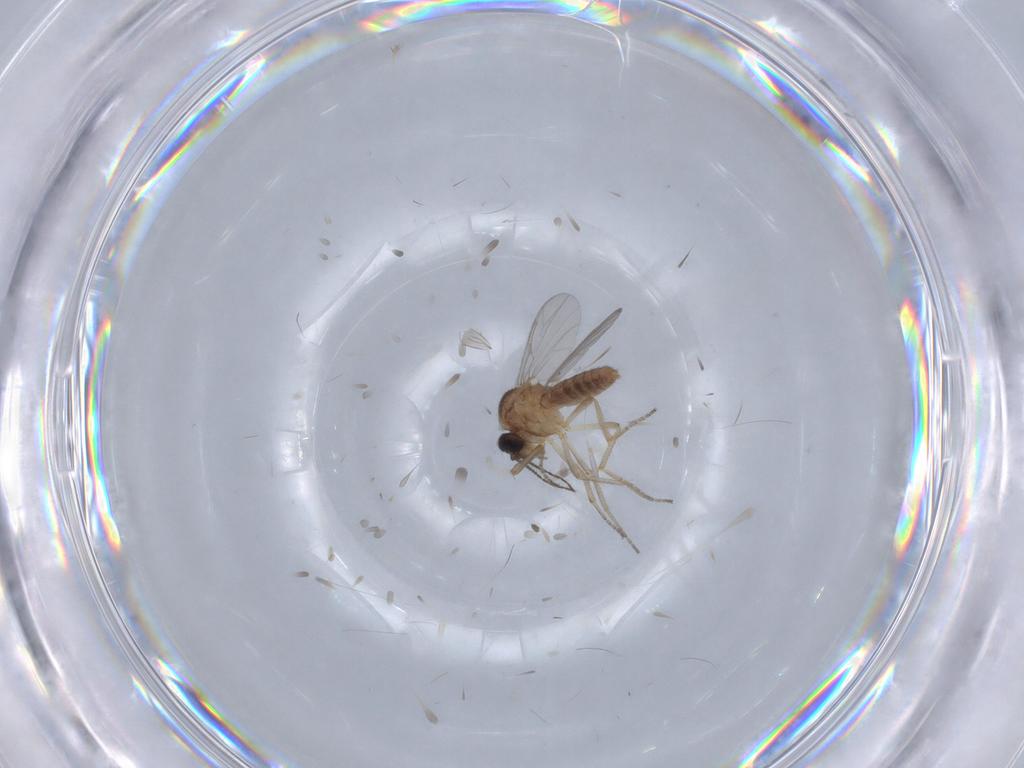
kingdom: Animalia
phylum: Arthropoda
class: Insecta
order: Diptera
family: Ceratopogonidae
